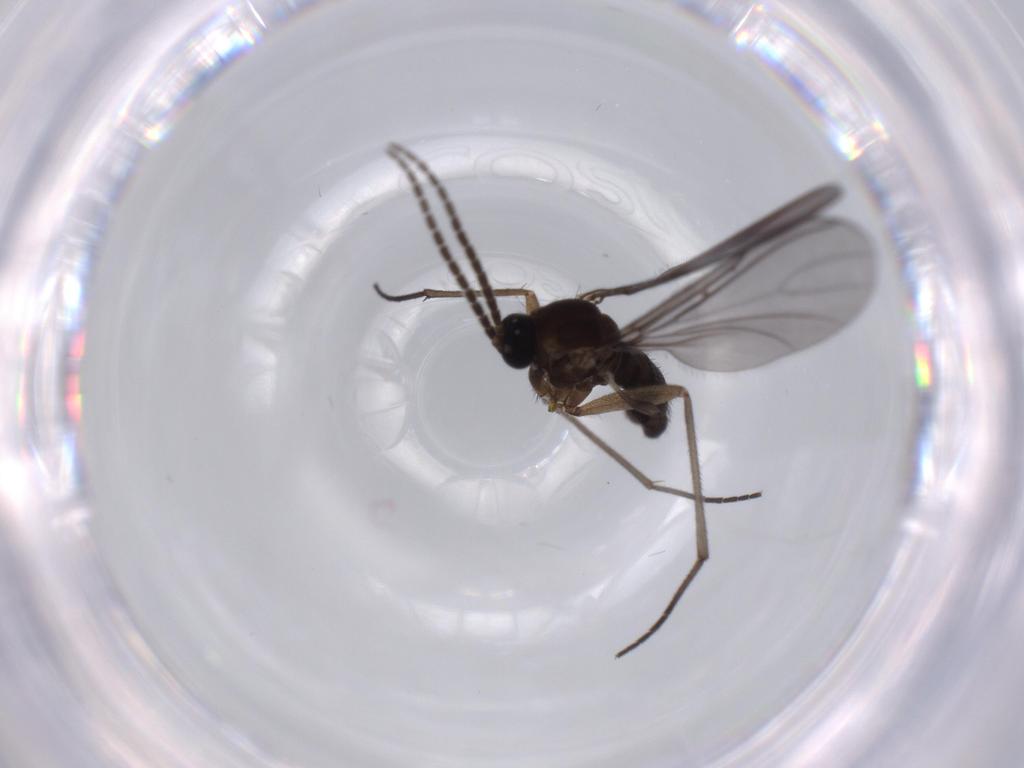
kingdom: Animalia
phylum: Arthropoda
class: Insecta
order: Diptera
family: Sciaridae
